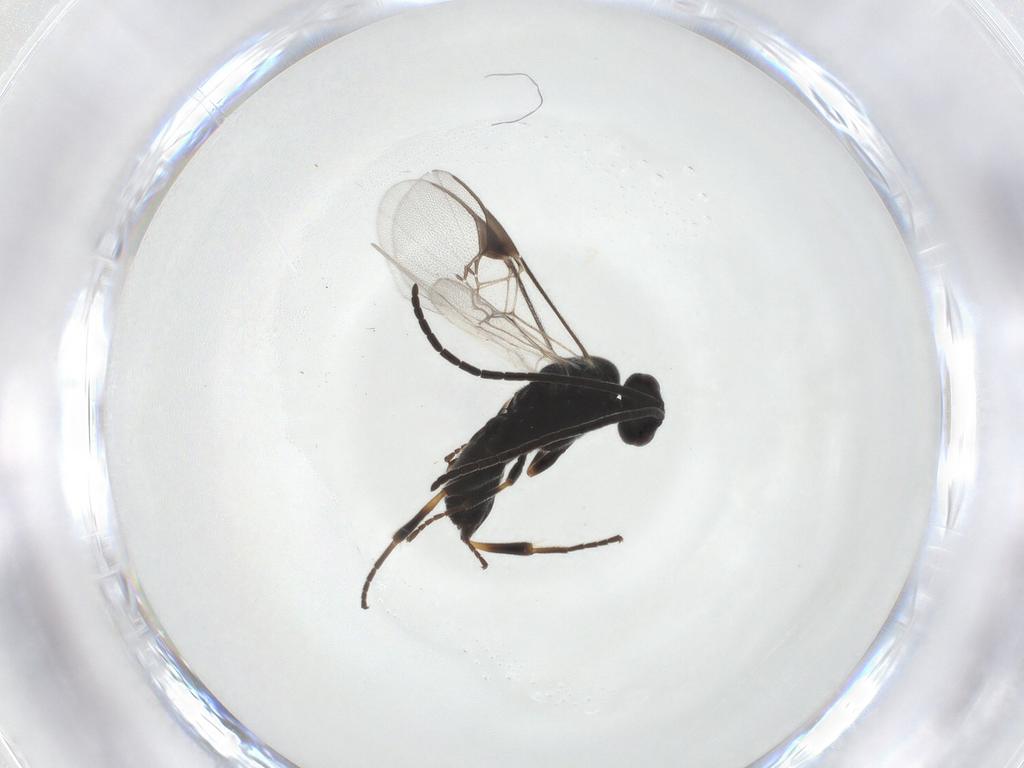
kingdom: Animalia
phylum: Arthropoda
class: Insecta
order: Hymenoptera
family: Braconidae
